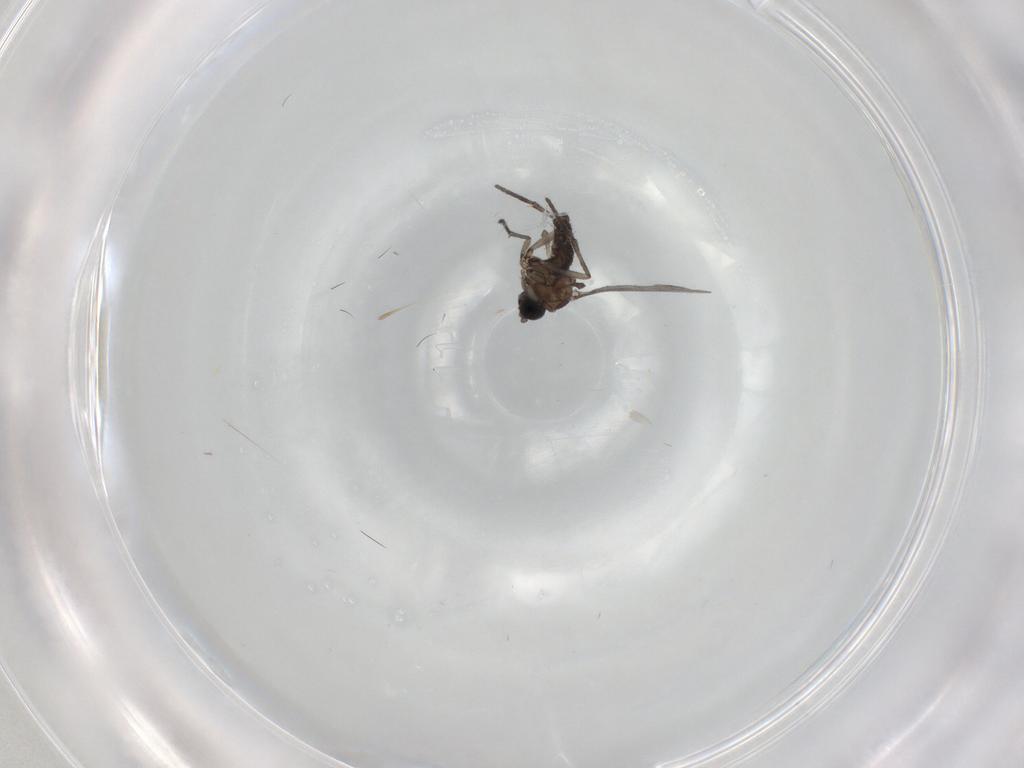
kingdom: Animalia
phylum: Arthropoda
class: Insecta
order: Diptera
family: Sciaridae
